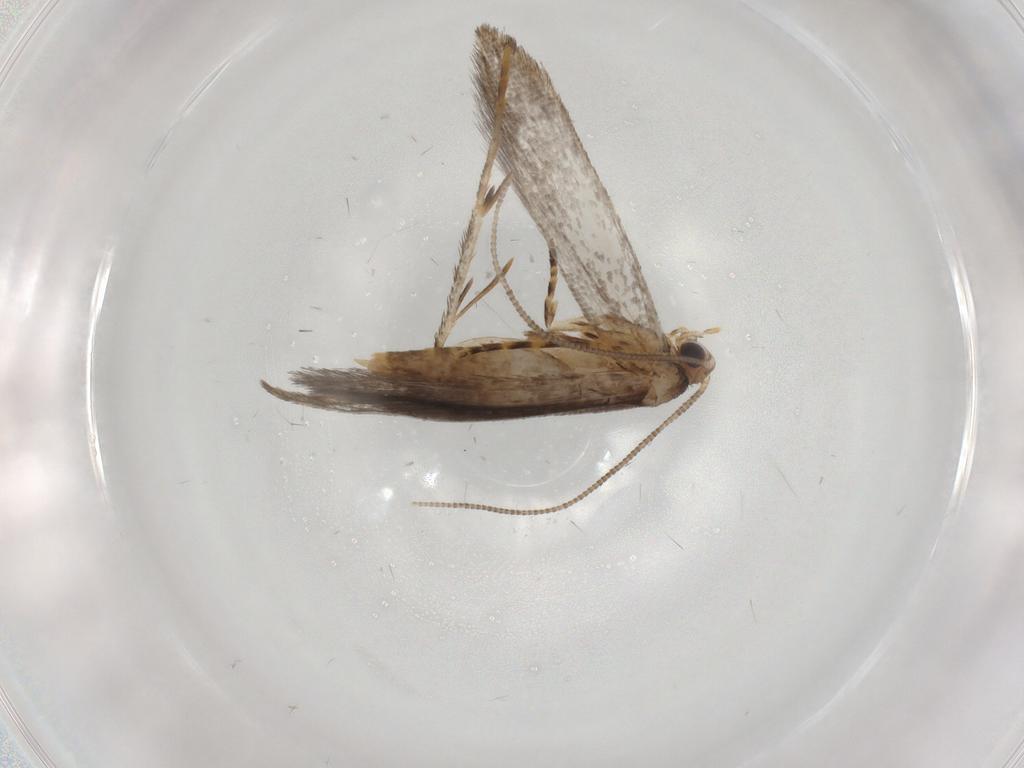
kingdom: Animalia
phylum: Arthropoda
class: Insecta
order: Lepidoptera
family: Tineidae
